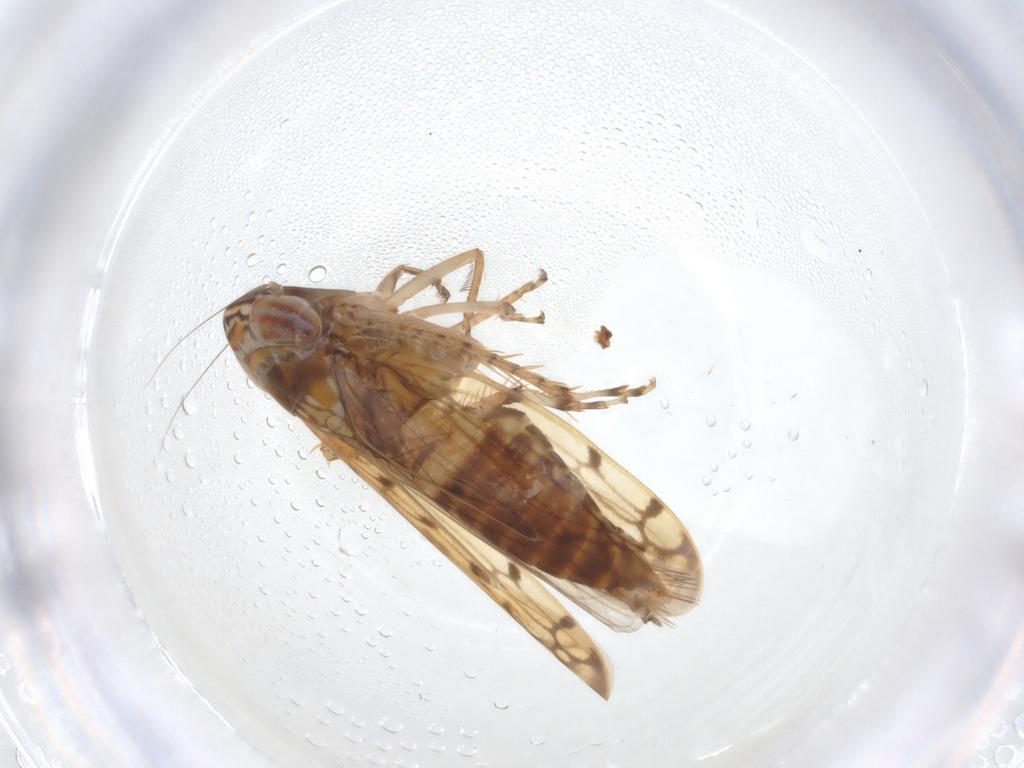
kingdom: Animalia
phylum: Arthropoda
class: Insecta
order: Hemiptera
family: Cicadellidae
